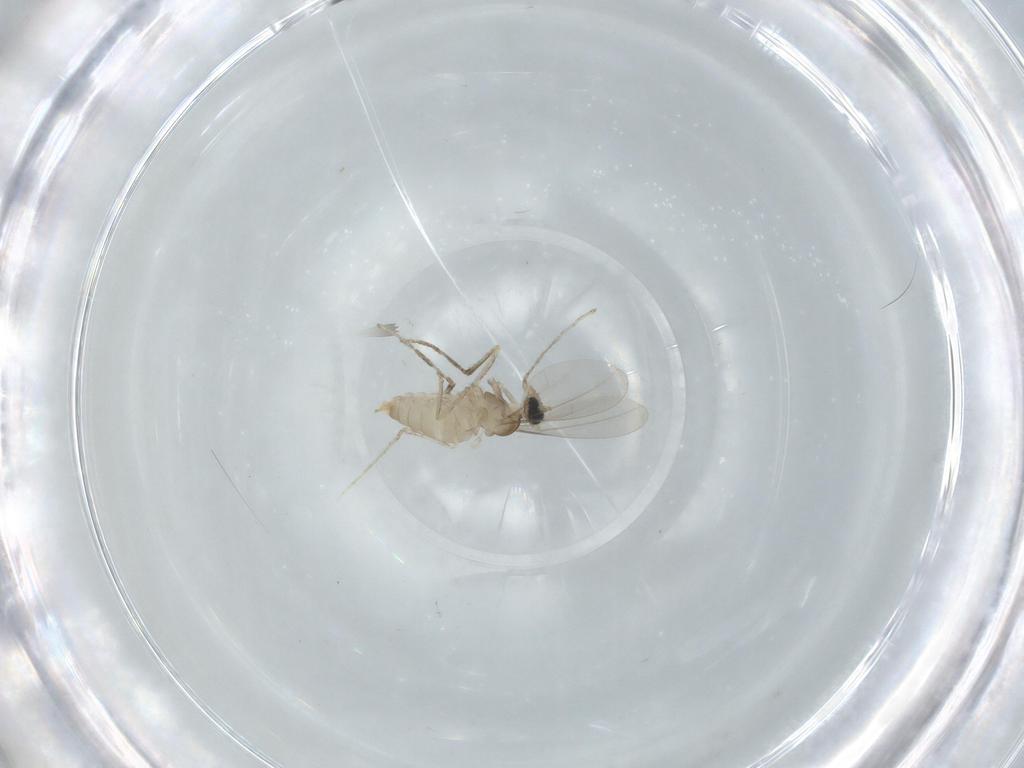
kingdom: Animalia
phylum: Arthropoda
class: Insecta
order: Diptera
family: Cecidomyiidae
